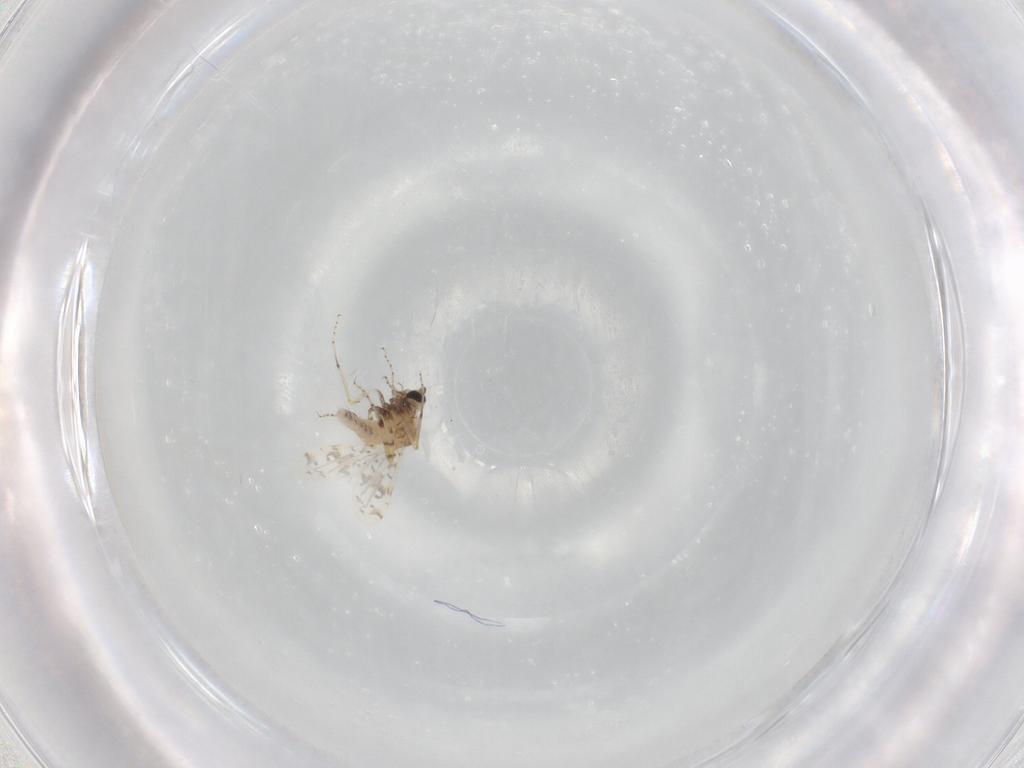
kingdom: Animalia
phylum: Arthropoda
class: Insecta
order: Diptera
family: Ceratopogonidae
